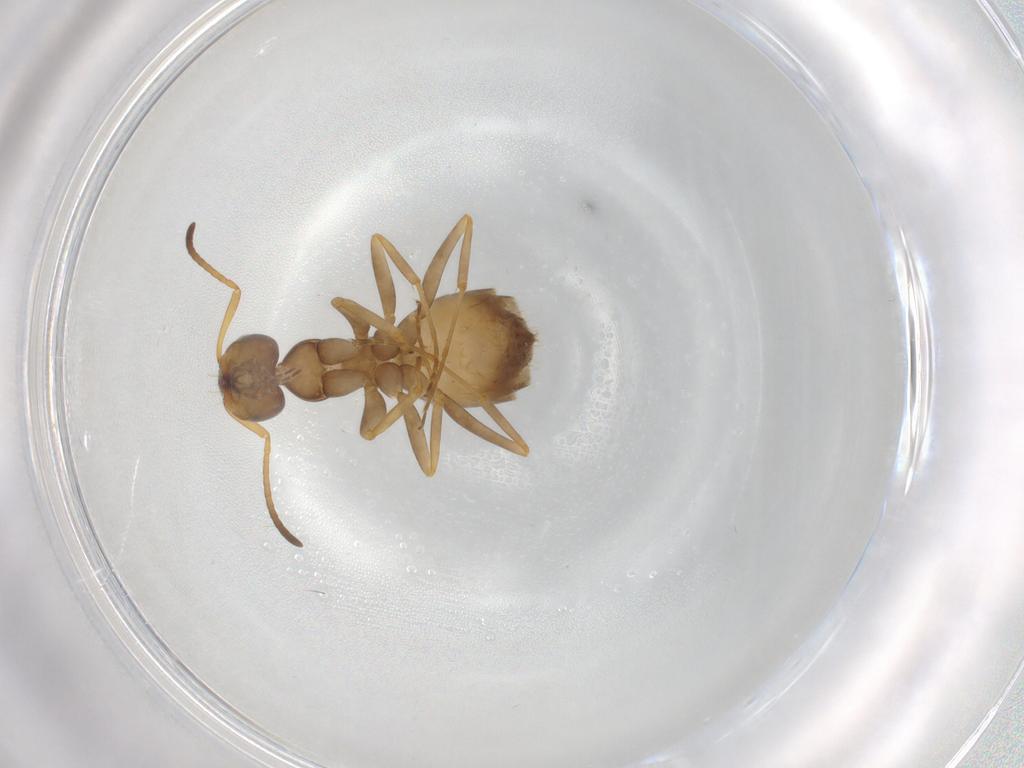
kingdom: Animalia
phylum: Arthropoda
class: Insecta
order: Hymenoptera
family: Formicidae
